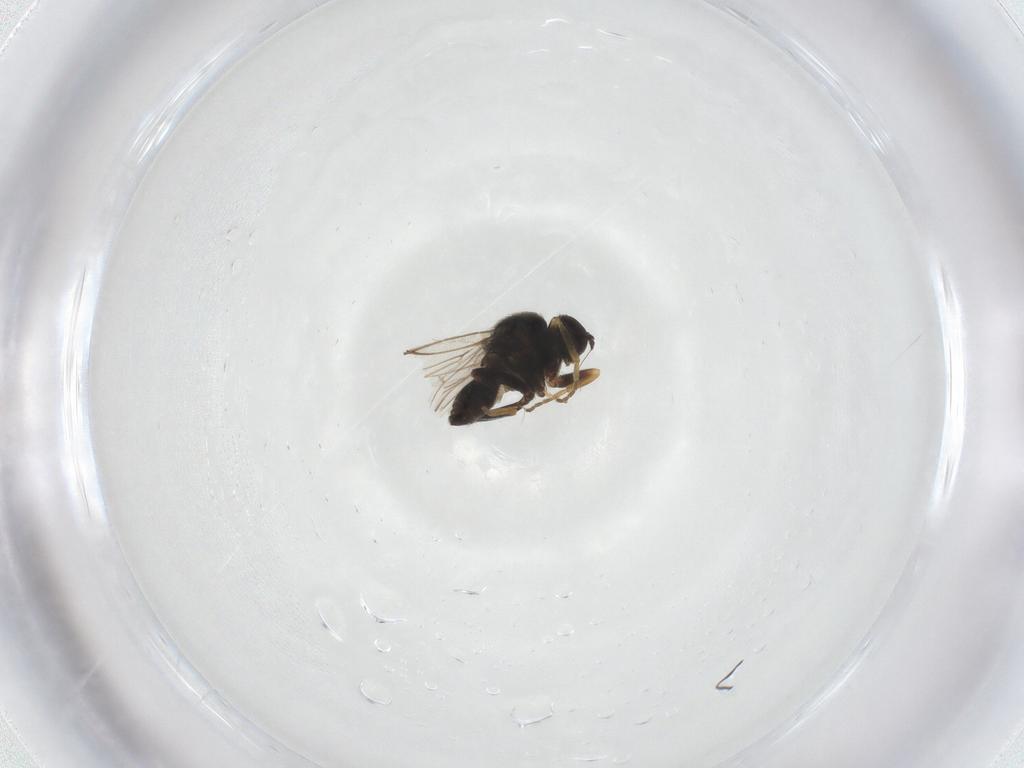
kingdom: Animalia
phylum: Arthropoda
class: Insecta
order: Diptera
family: Hybotidae
